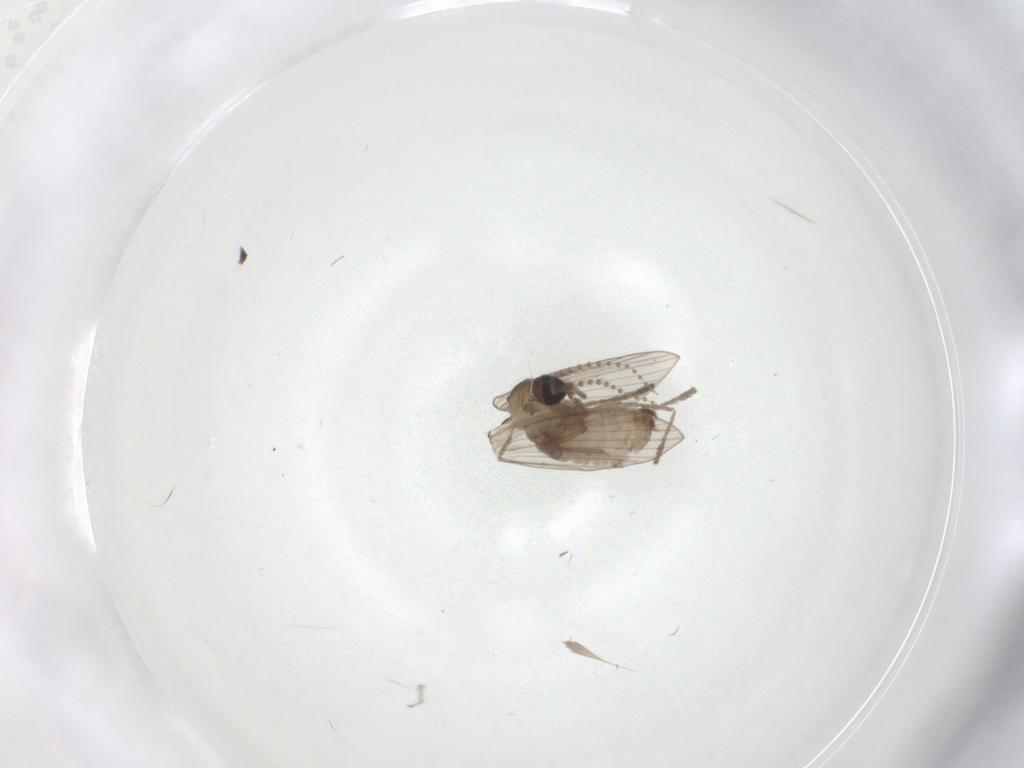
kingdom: Animalia
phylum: Arthropoda
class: Insecta
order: Diptera
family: Psychodidae
